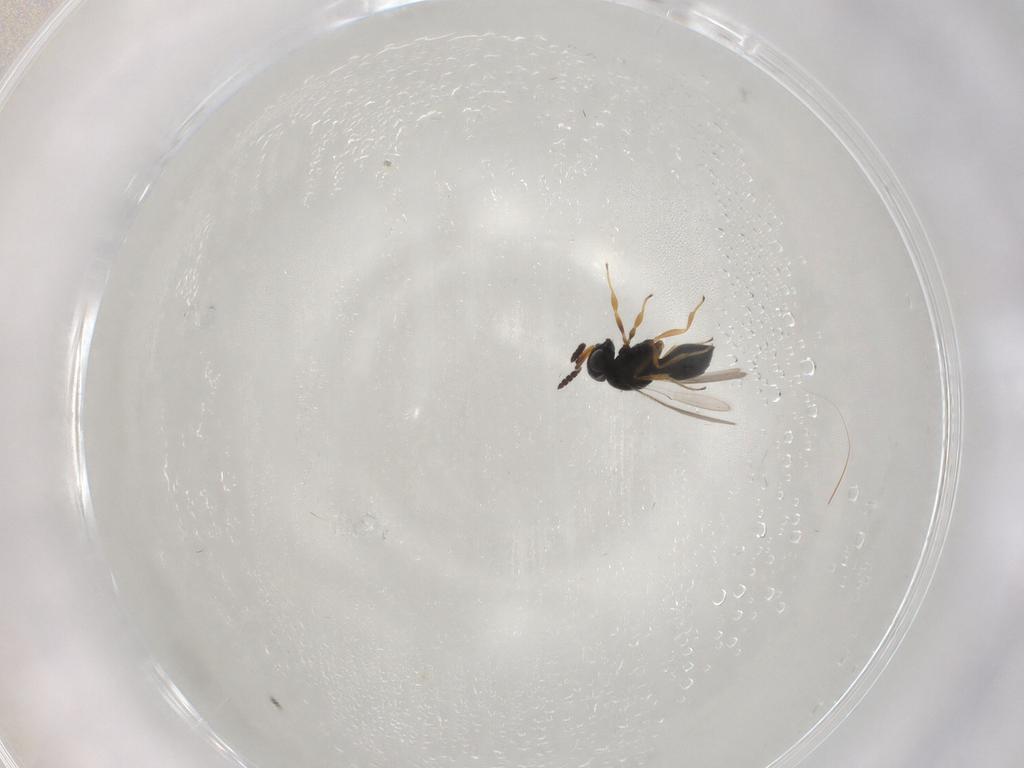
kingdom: Animalia
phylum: Arthropoda
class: Insecta
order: Hymenoptera
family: Scelionidae
